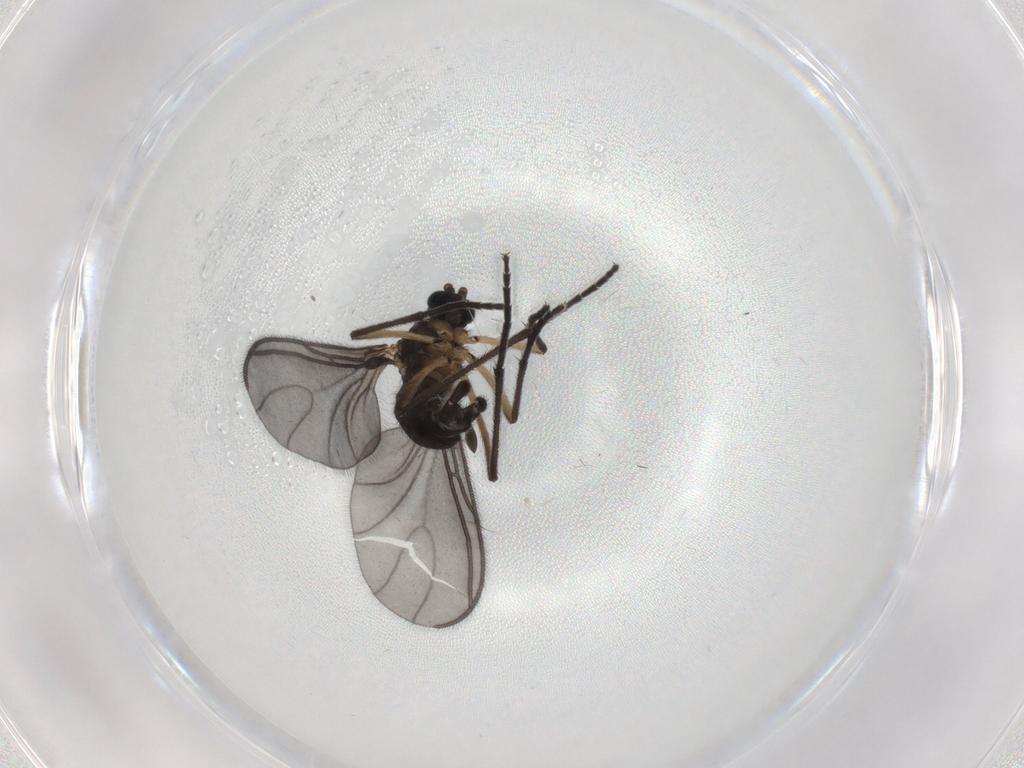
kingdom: Animalia
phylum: Arthropoda
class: Insecta
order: Diptera
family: Sciaridae
